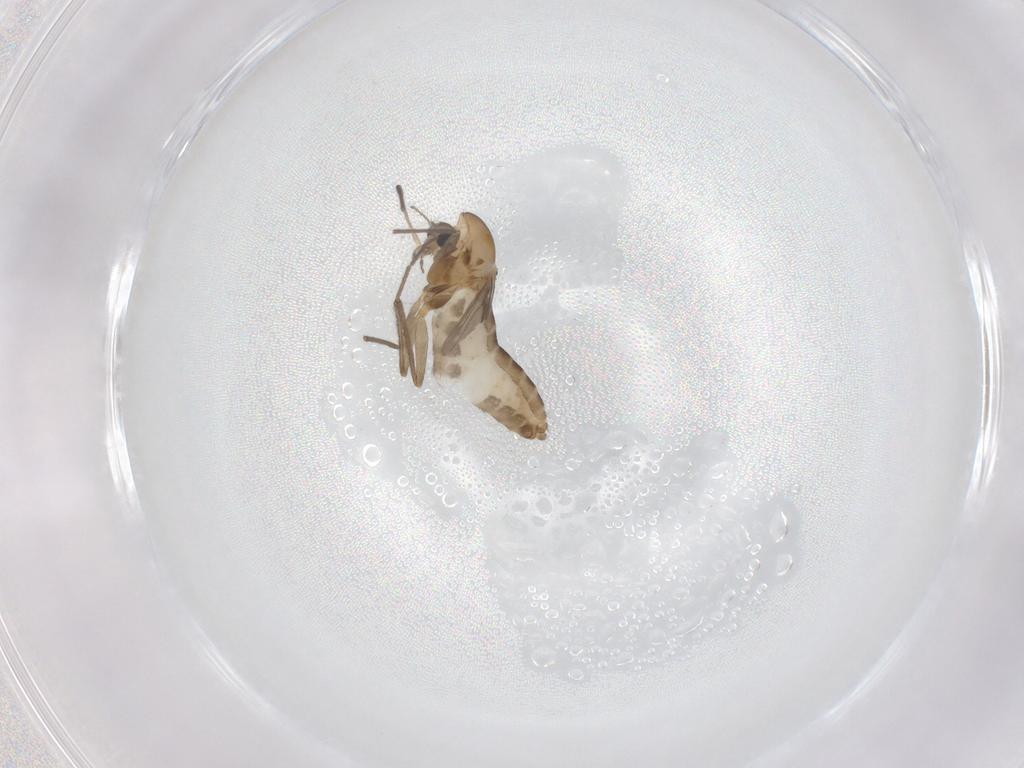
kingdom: Animalia
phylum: Arthropoda
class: Insecta
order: Diptera
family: Chironomidae
